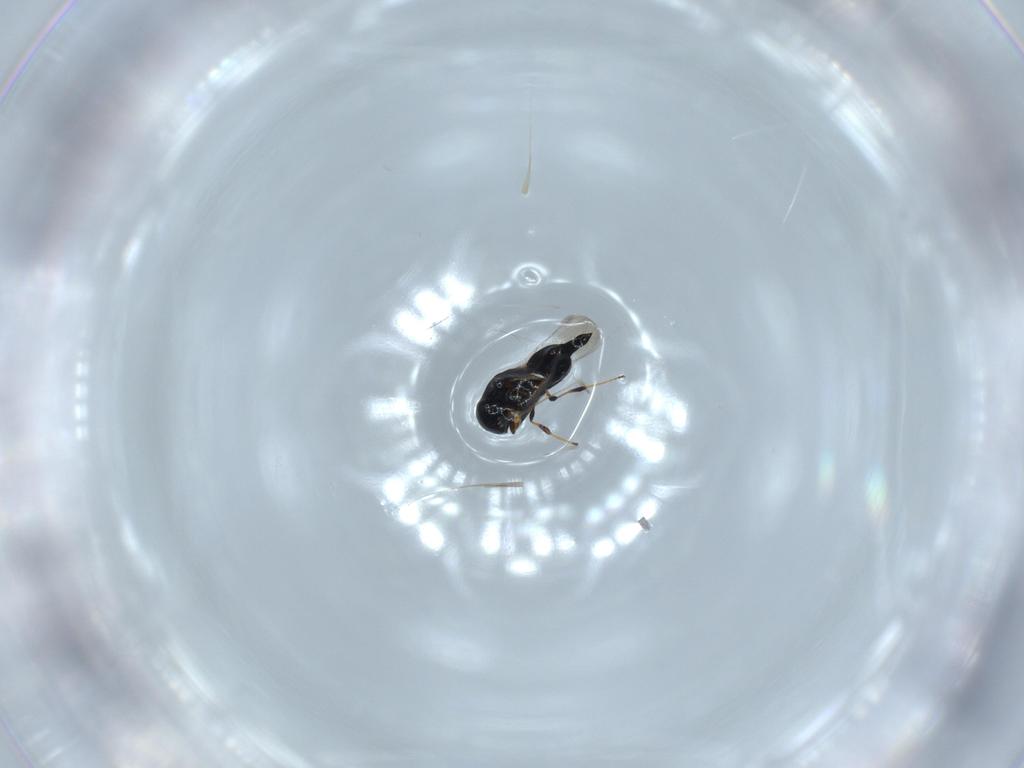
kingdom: Animalia
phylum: Arthropoda
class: Insecta
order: Hymenoptera
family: Platygastridae
